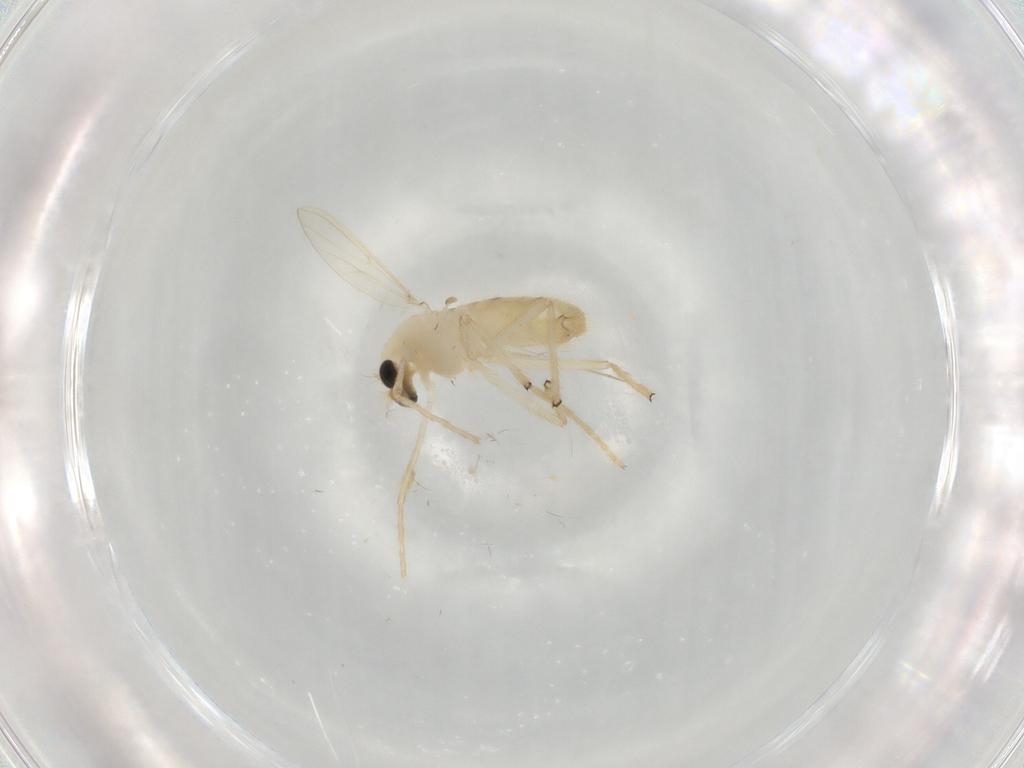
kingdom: Animalia
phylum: Arthropoda
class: Insecta
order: Diptera
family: Chironomidae
